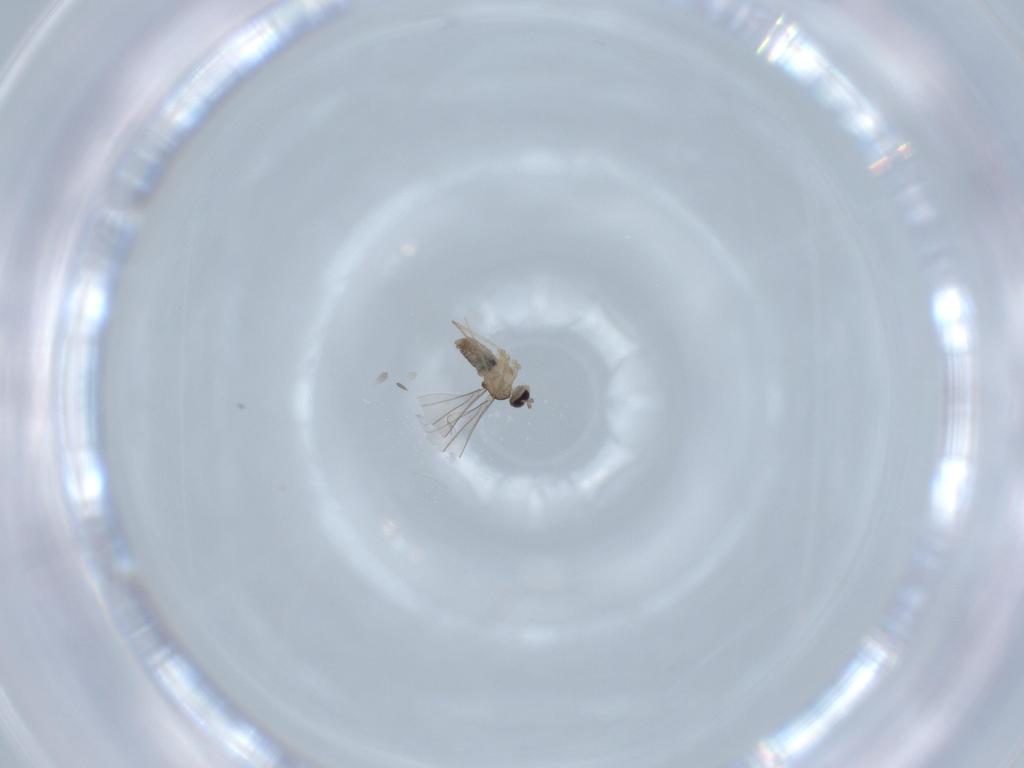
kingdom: Animalia
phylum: Arthropoda
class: Insecta
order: Diptera
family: Cecidomyiidae
